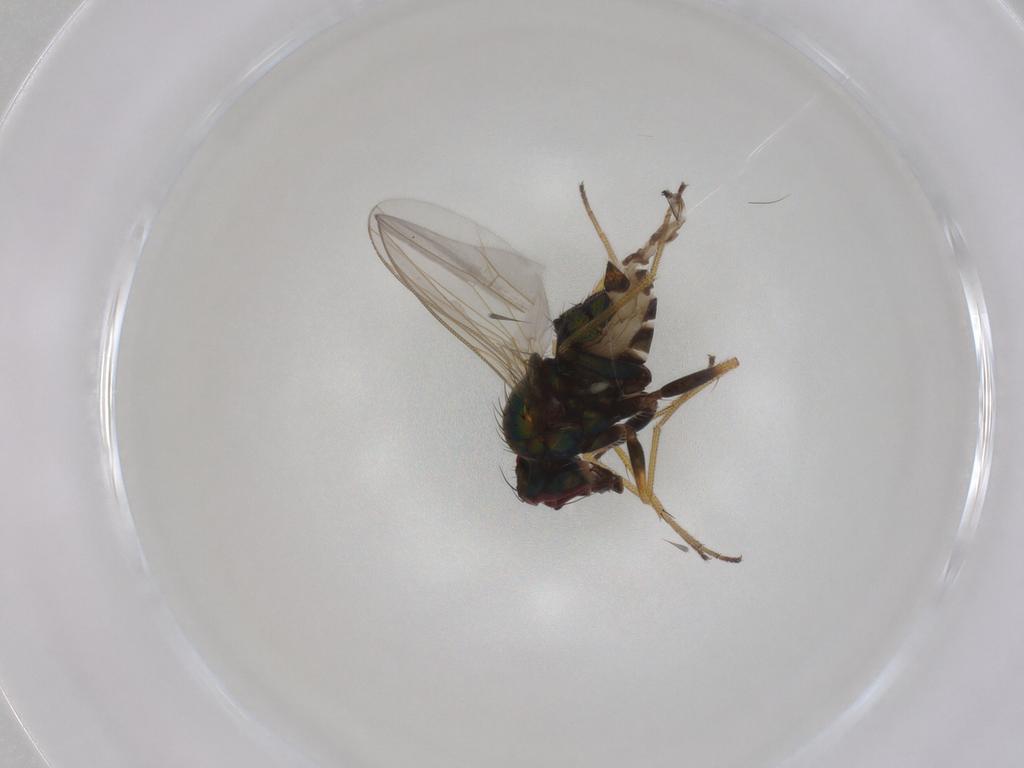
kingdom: Animalia
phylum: Arthropoda
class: Insecta
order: Diptera
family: Dolichopodidae
